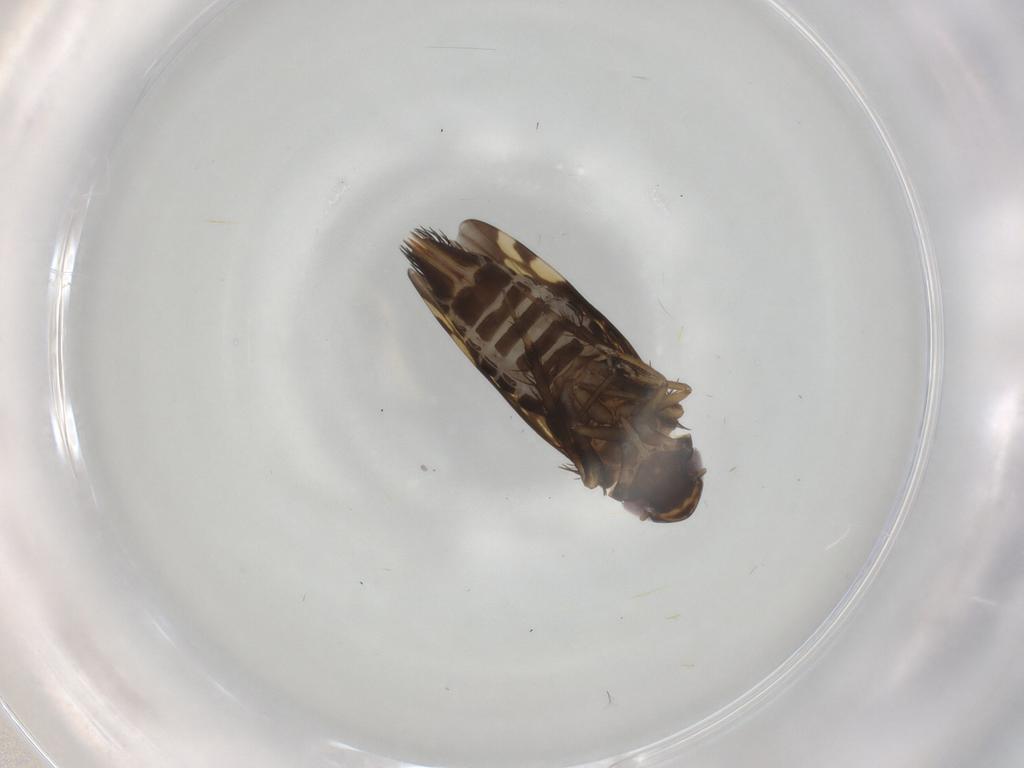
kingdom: Animalia
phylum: Arthropoda
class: Insecta
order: Hemiptera
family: Cicadellidae
